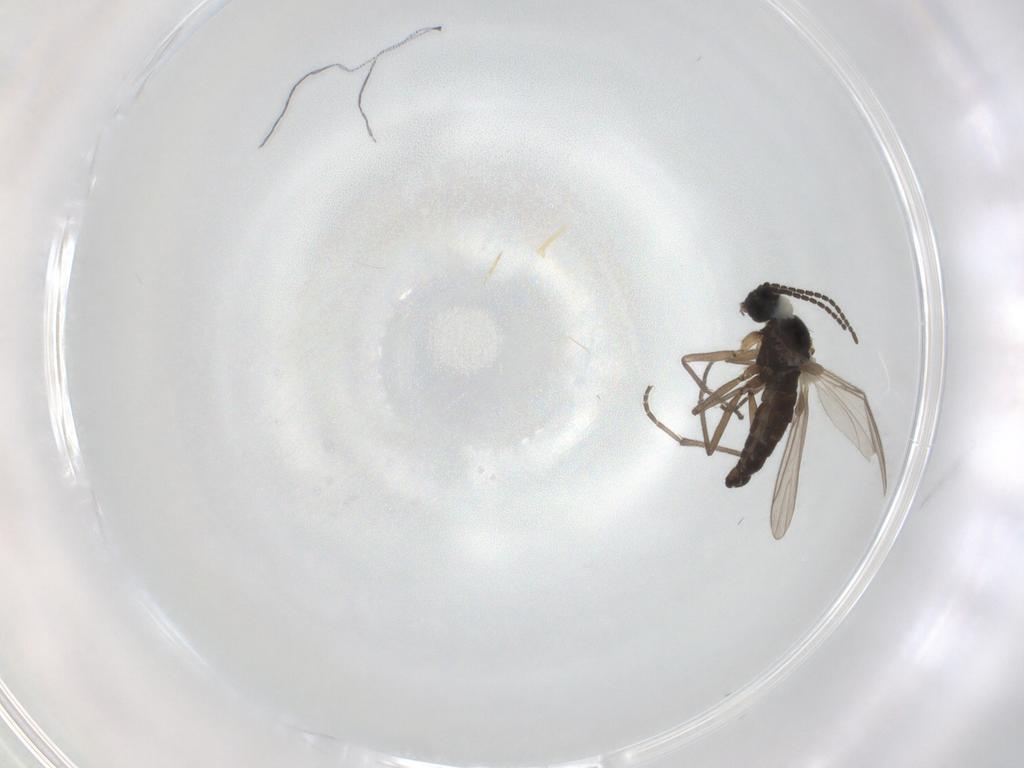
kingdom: Animalia
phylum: Arthropoda
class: Insecta
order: Diptera
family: Sciaridae
